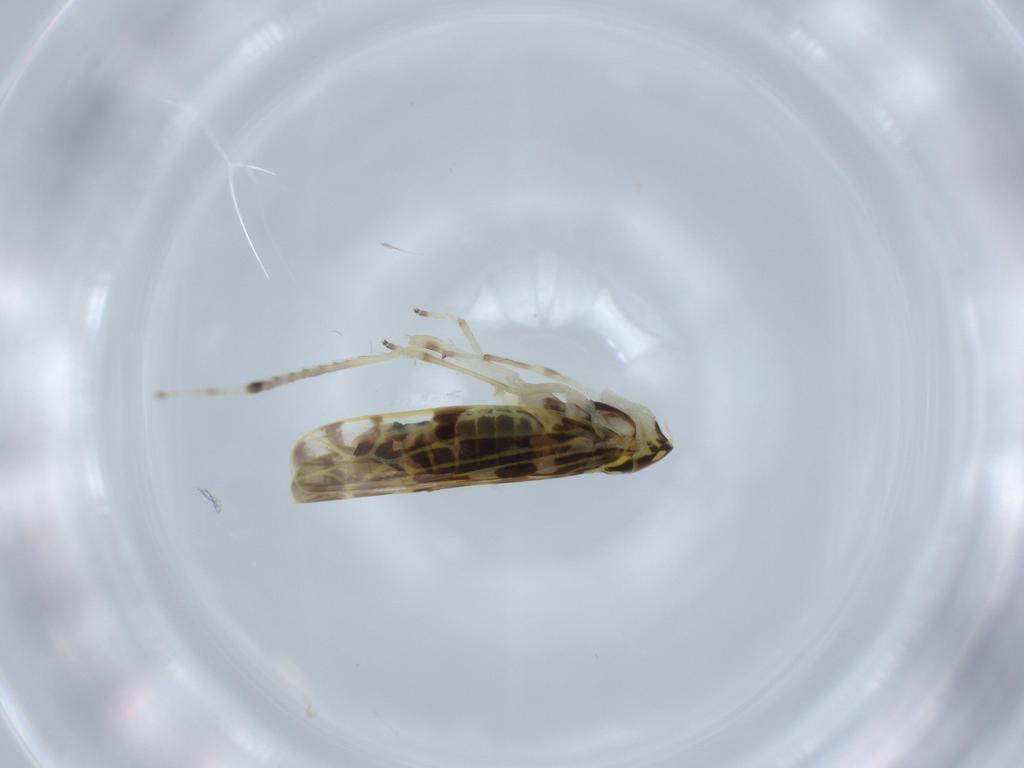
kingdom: Animalia
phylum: Arthropoda
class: Insecta
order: Hemiptera
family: Cicadellidae
